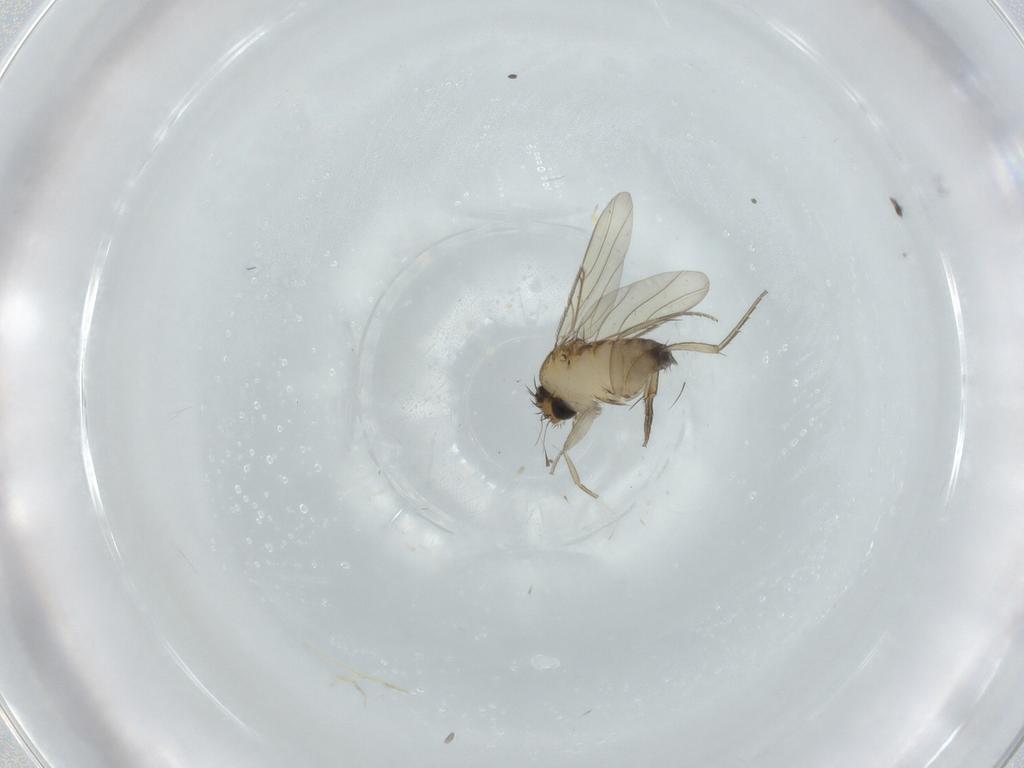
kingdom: Animalia
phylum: Arthropoda
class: Insecta
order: Diptera
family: Phoridae
